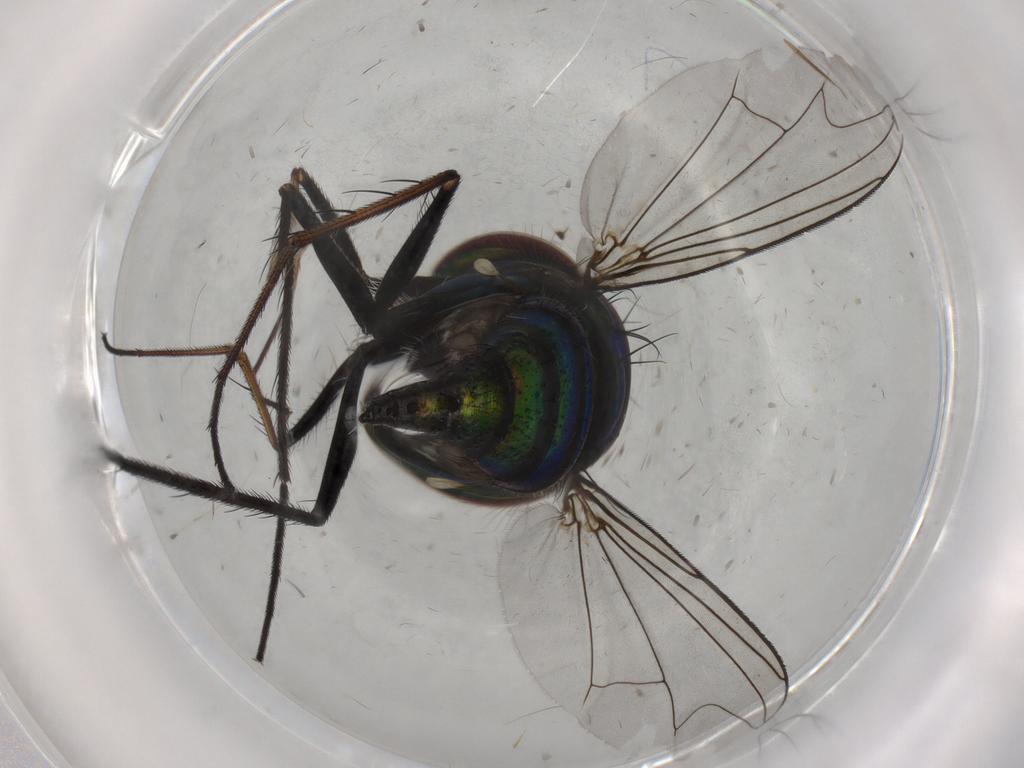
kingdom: Animalia
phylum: Arthropoda
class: Insecta
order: Diptera
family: Dolichopodidae
